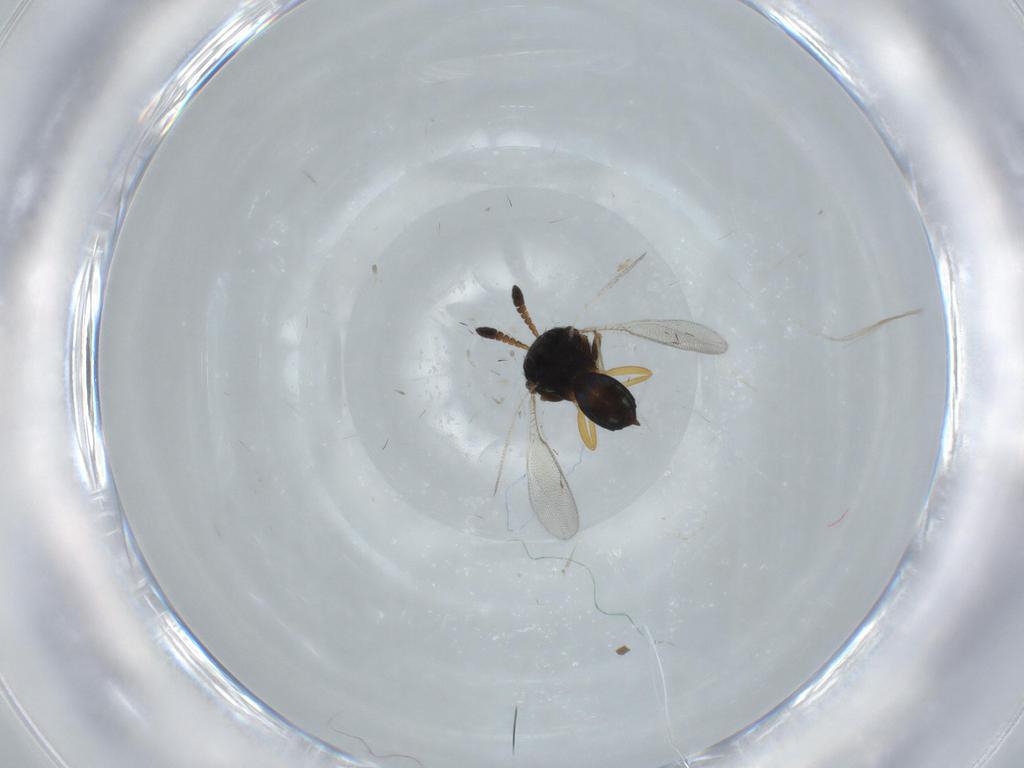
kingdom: Animalia
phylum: Arthropoda
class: Insecta
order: Hymenoptera
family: Pteromalidae
